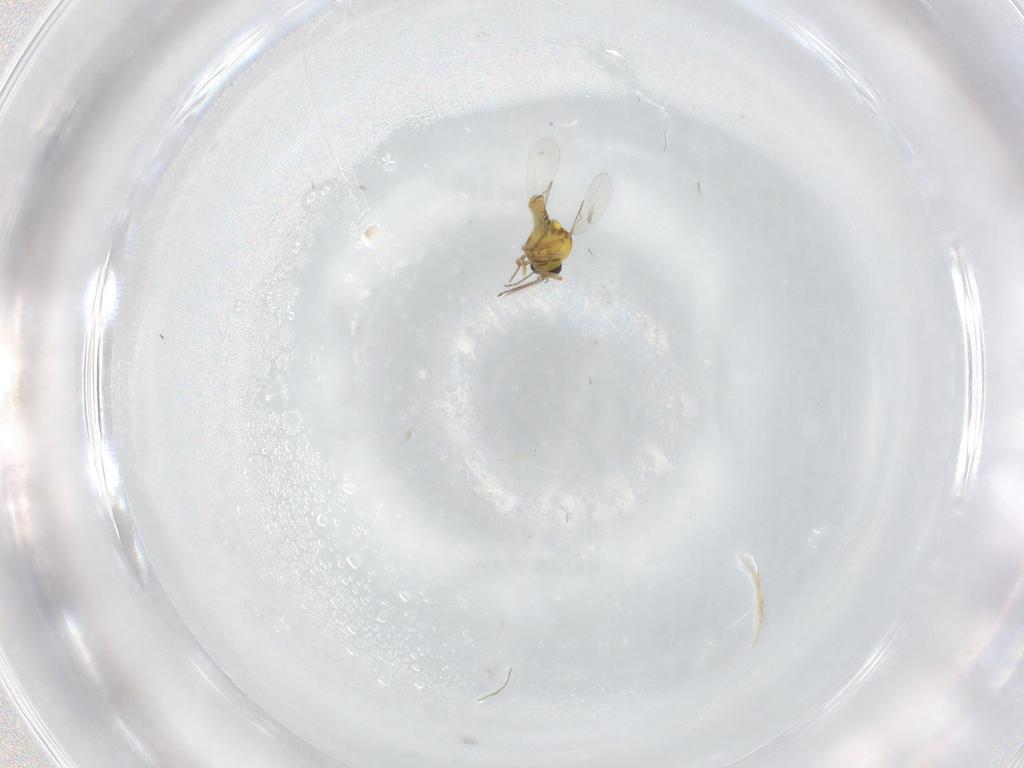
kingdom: Animalia
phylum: Arthropoda
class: Insecta
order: Diptera
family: Ceratopogonidae
